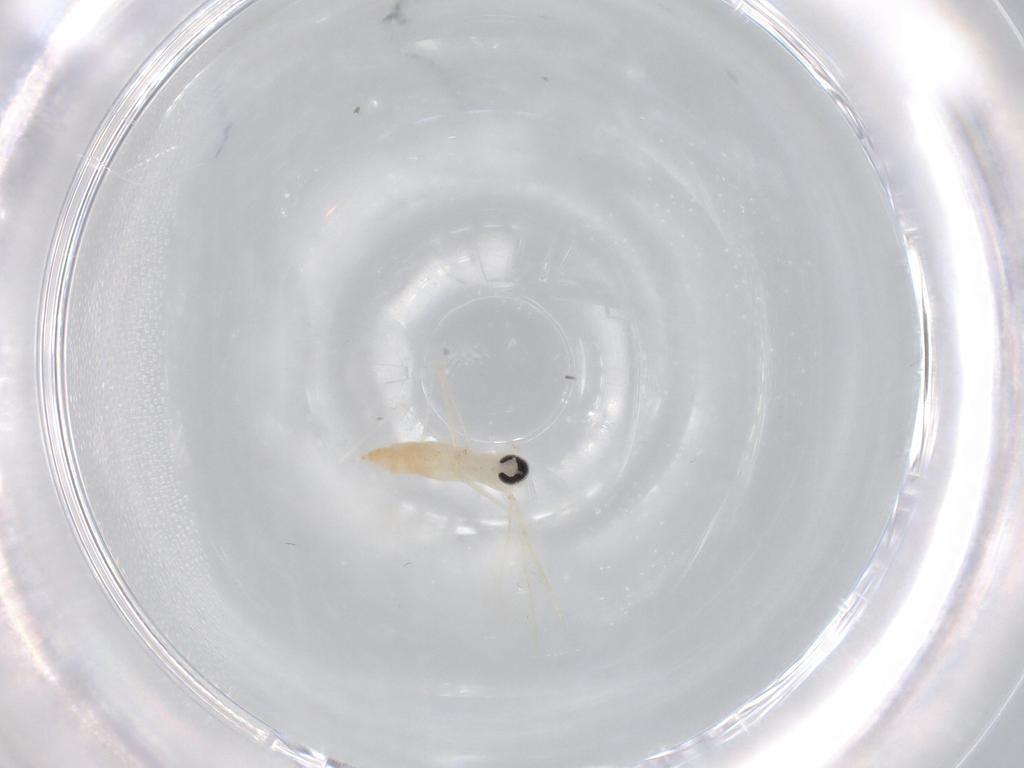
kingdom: Animalia
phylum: Arthropoda
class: Insecta
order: Diptera
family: Cecidomyiidae
